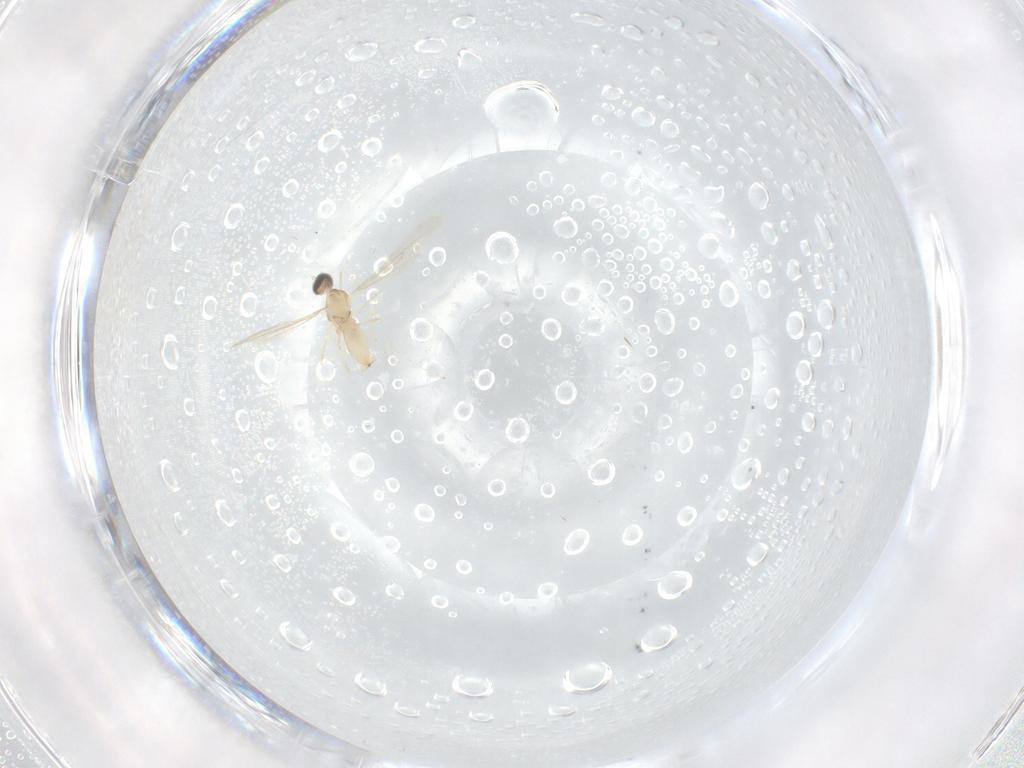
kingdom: Animalia
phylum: Arthropoda
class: Insecta
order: Diptera
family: Cecidomyiidae
